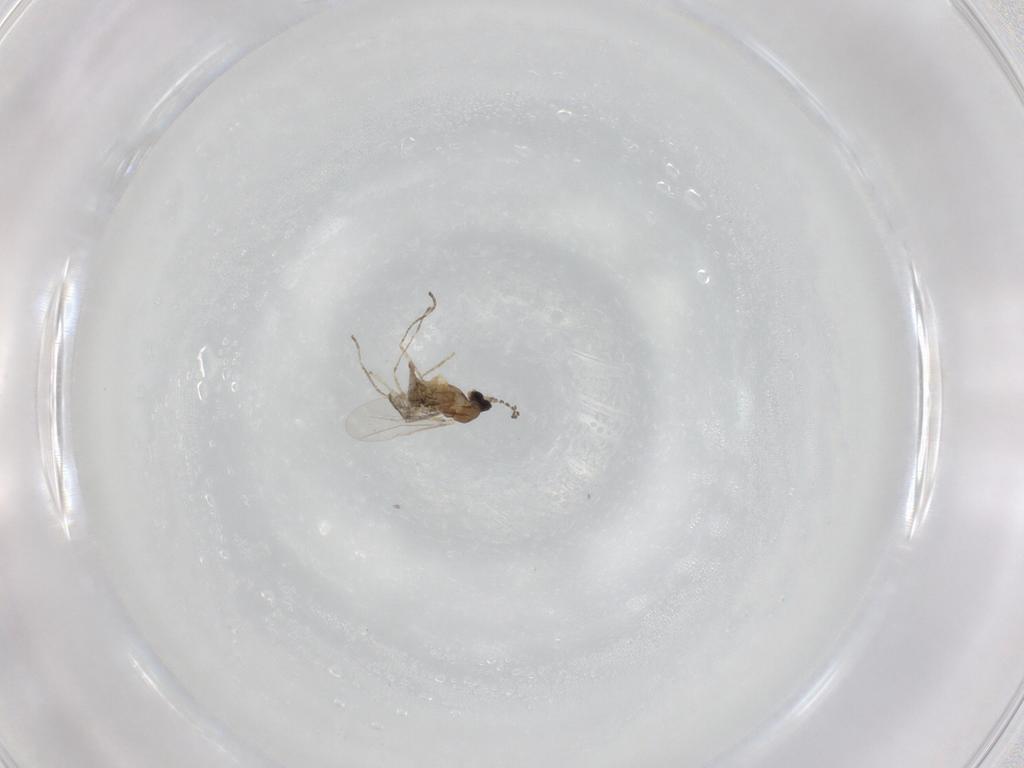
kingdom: Animalia
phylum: Arthropoda
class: Insecta
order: Diptera
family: Cecidomyiidae
